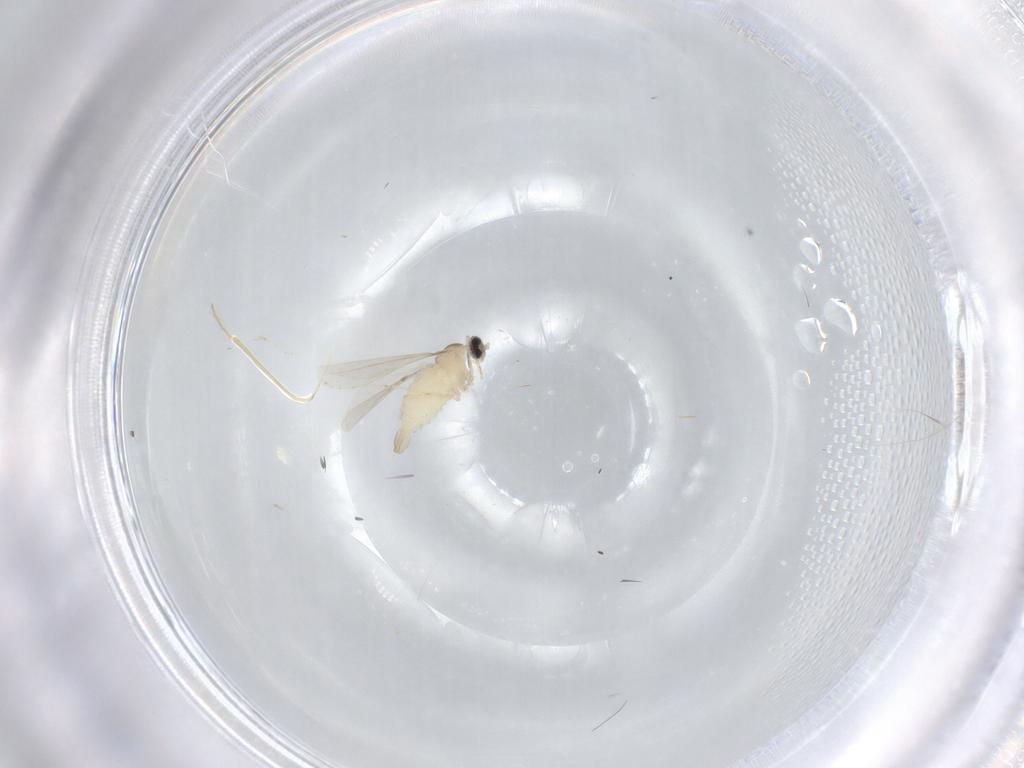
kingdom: Animalia
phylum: Arthropoda
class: Insecta
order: Diptera
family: Cecidomyiidae
